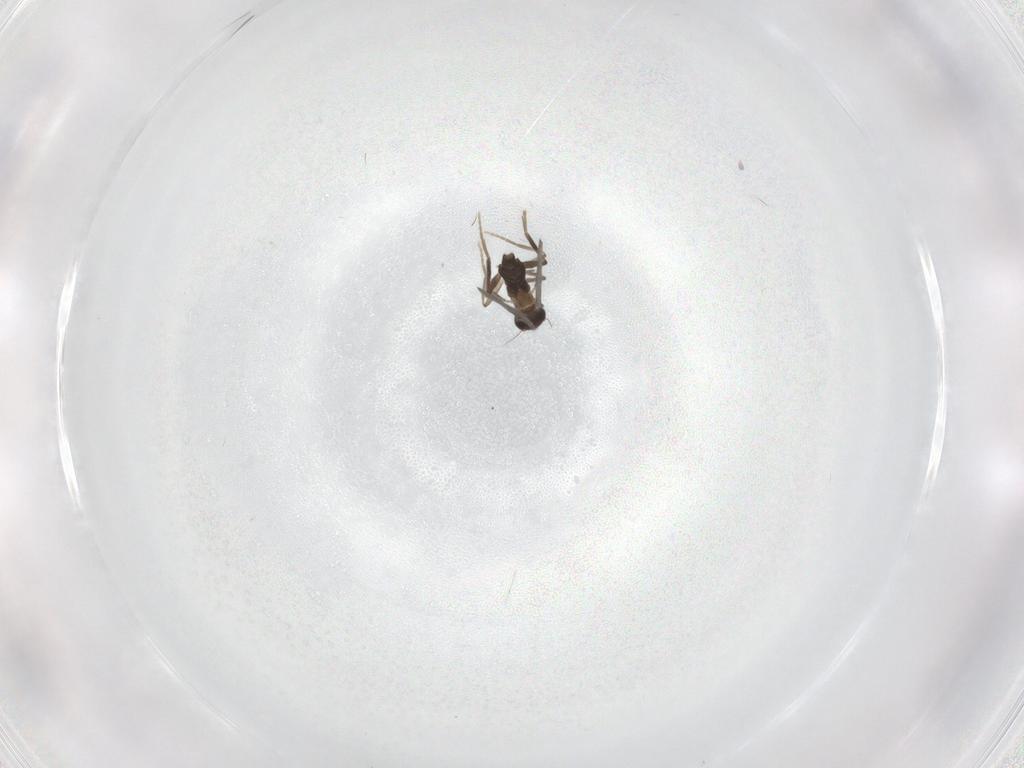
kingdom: Animalia
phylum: Arthropoda
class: Insecta
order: Diptera
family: Phoridae
